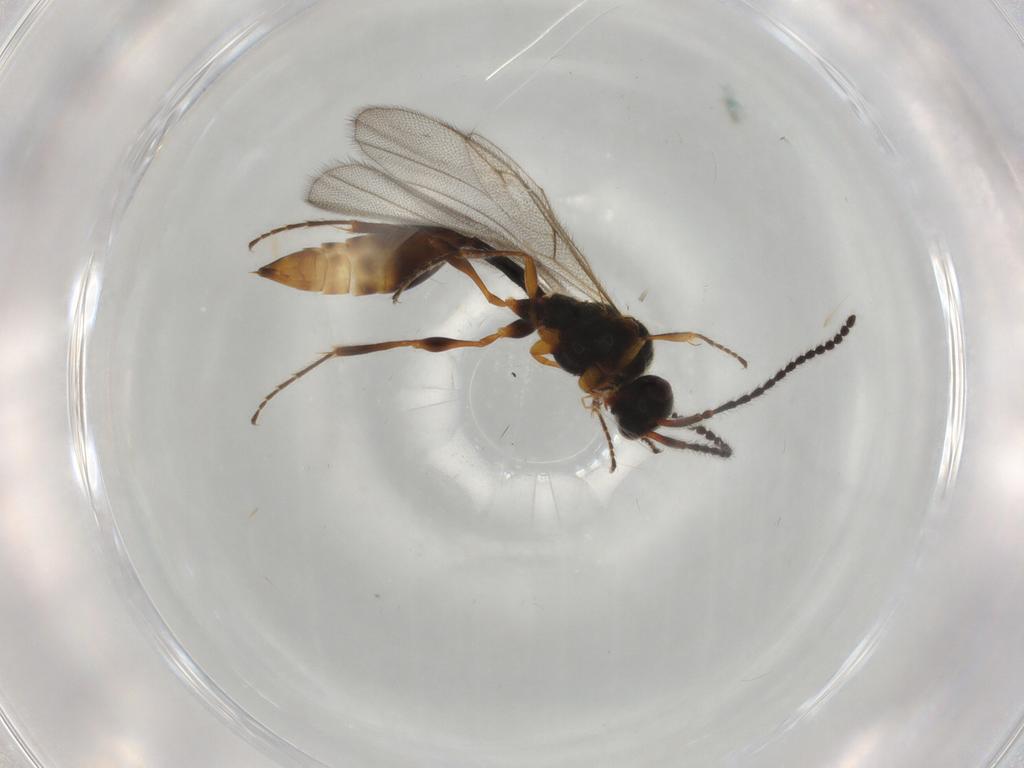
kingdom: Animalia
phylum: Arthropoda
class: Insecta
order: Hymenoptera
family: Diapriidae
